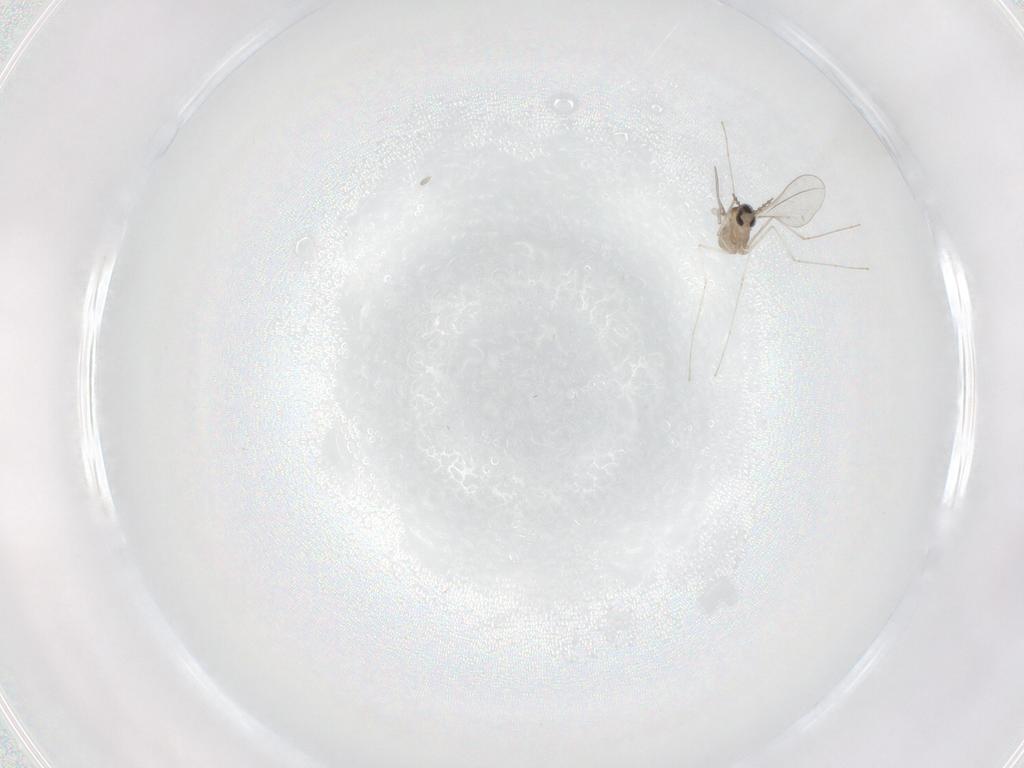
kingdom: Animalia
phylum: Arthropoda
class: Insecta
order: Diptera
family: Cecidomyiidae
